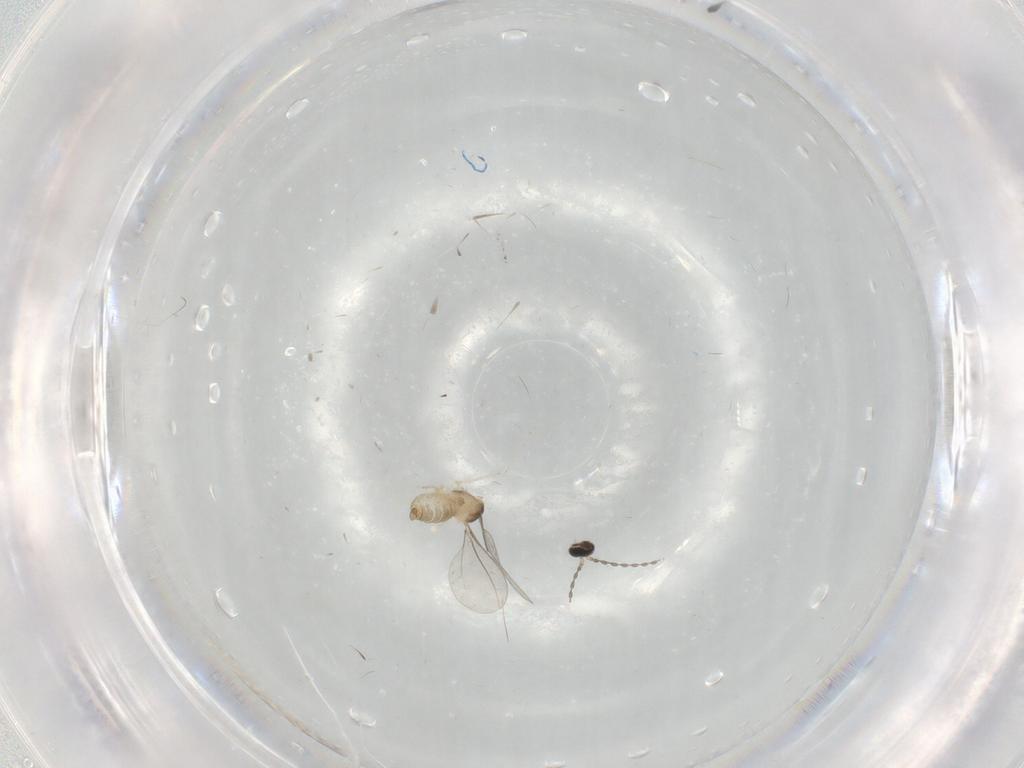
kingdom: Animalia
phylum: Arthropoda
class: Insecta
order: Diptera
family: Cecidomyiidae
